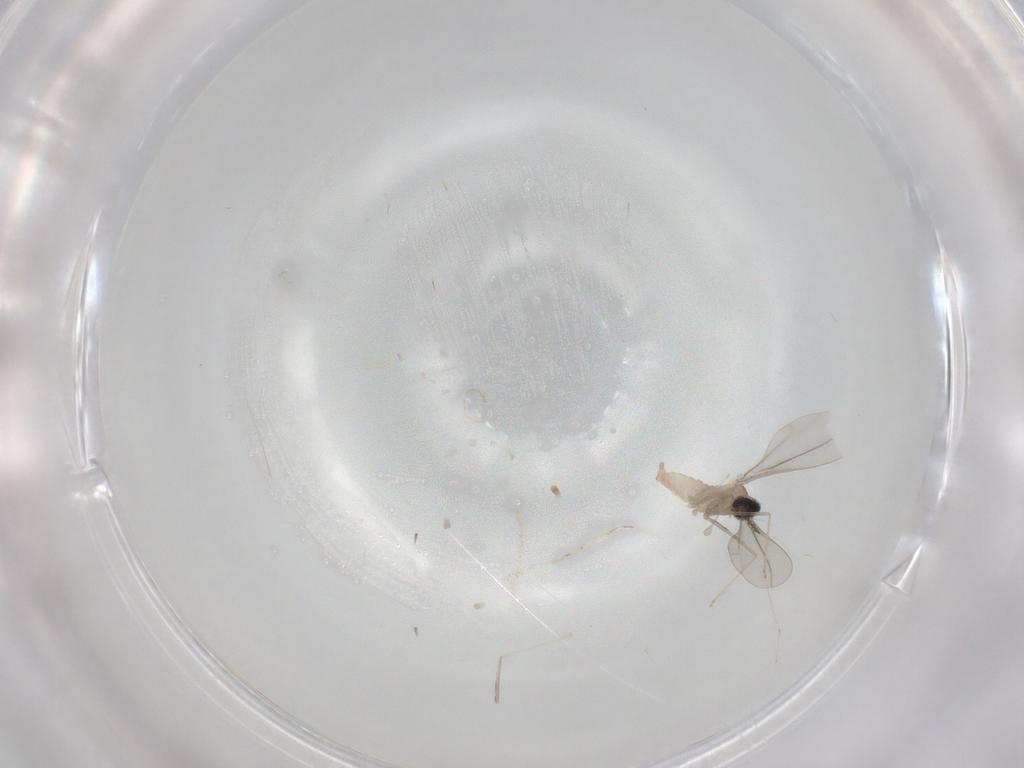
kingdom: Animalia
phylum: Arthropoda
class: Insecta
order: Diptera
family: Cecidomyiidae
